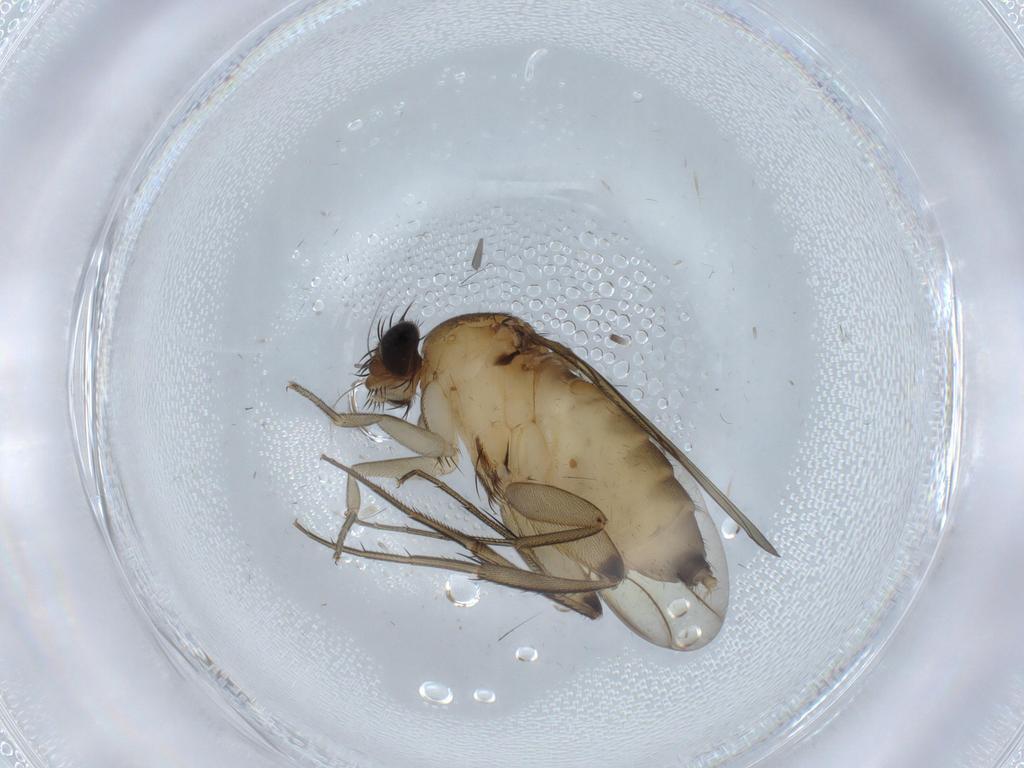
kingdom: Animalia
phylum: Arthropoda
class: Insecta
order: Diptera
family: Phoridae
